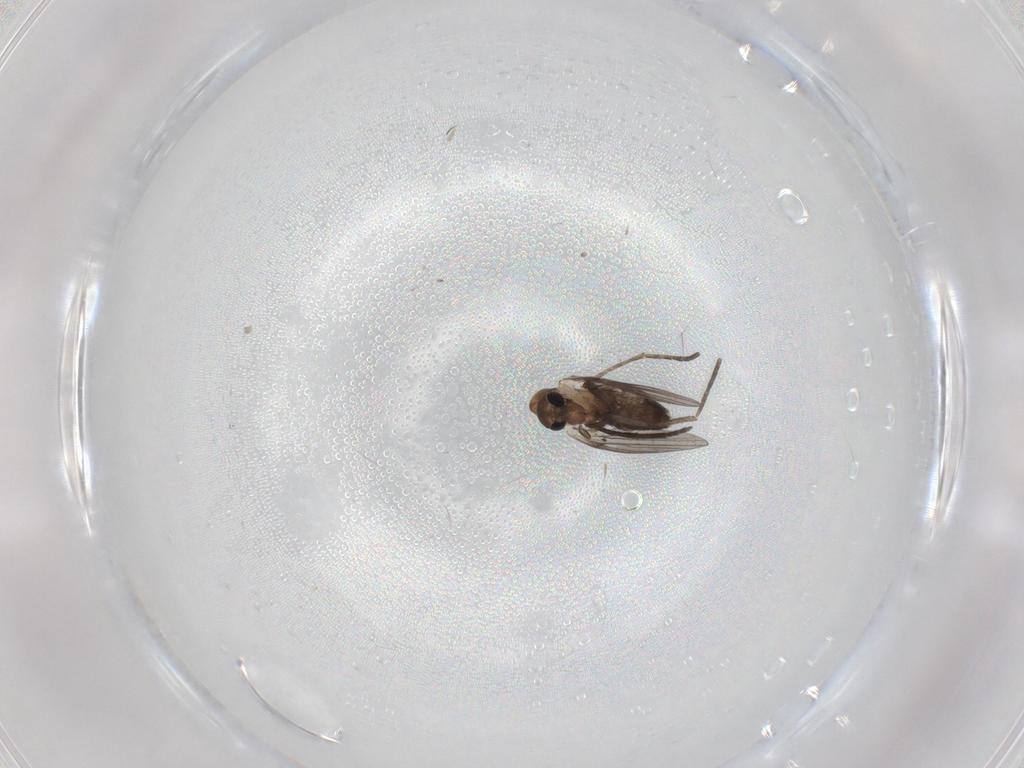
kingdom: Animalia
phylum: Arthropoda
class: Insecta
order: Diptera
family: Psychodidae
